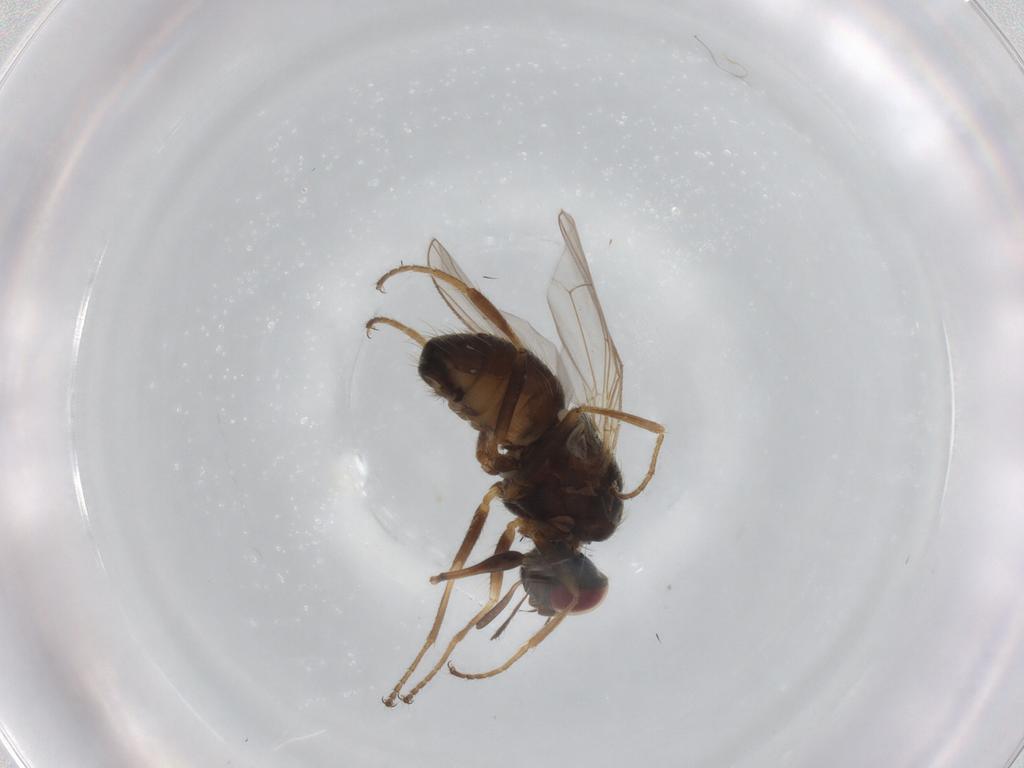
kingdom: Animalia
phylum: Arthropoda
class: Insecta
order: Diptera
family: Muscidae
